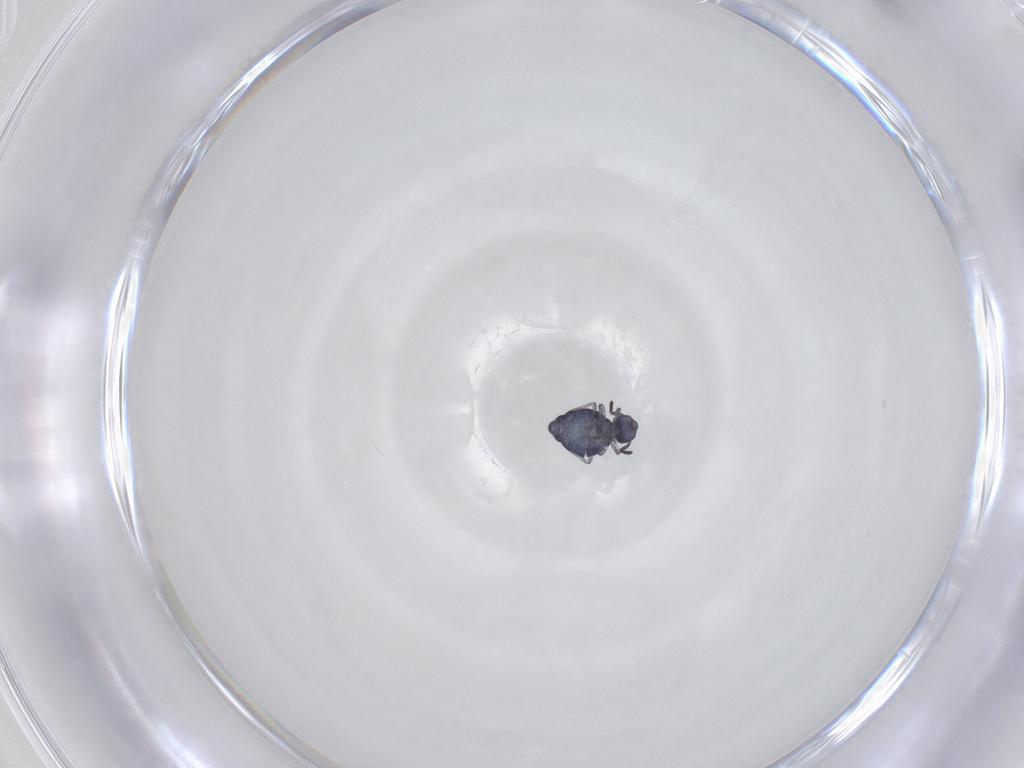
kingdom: Animalia
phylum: Arthropoda
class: Collembola
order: Symphypleona
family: Katiannidae
